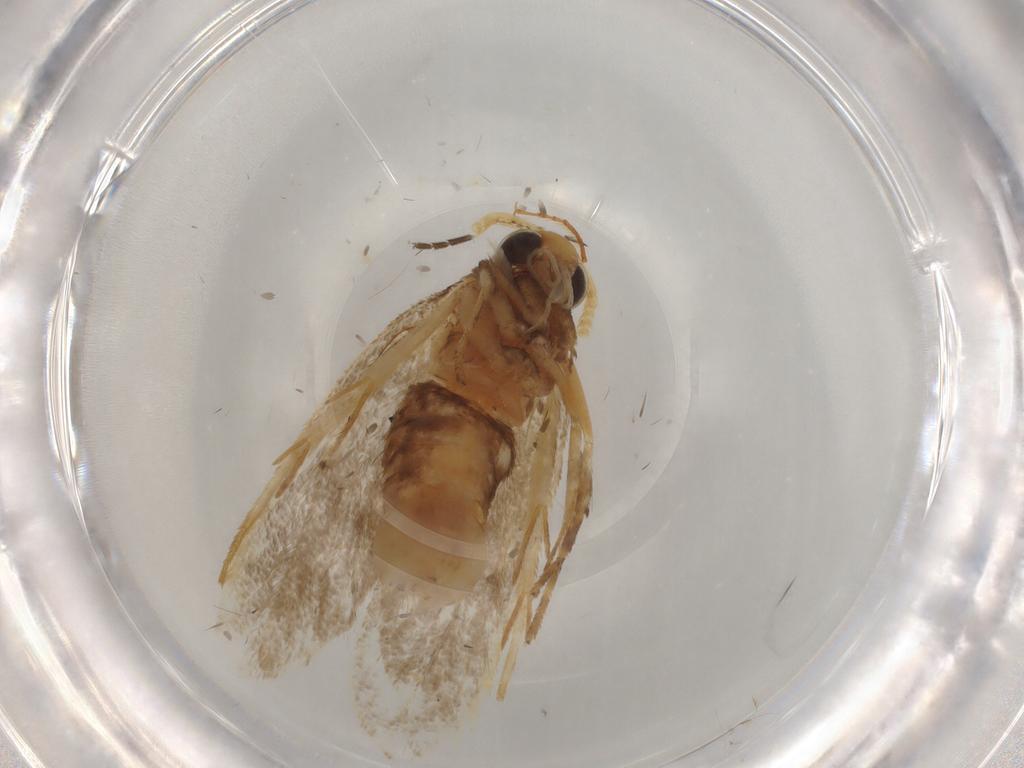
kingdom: Animalia
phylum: Arthropoda
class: Insecta
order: Lepidoptera
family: Lecithoceridae
